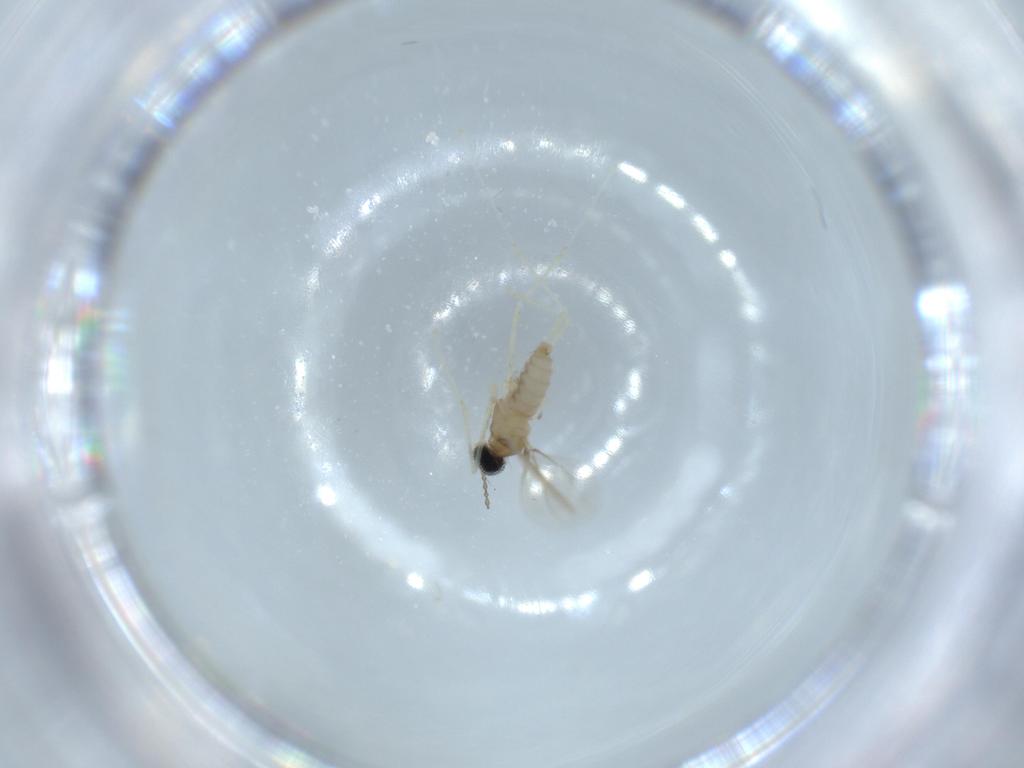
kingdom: Animalia
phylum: Arthropoda
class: Insecta
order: Diptera
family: Cecidomyiidae
